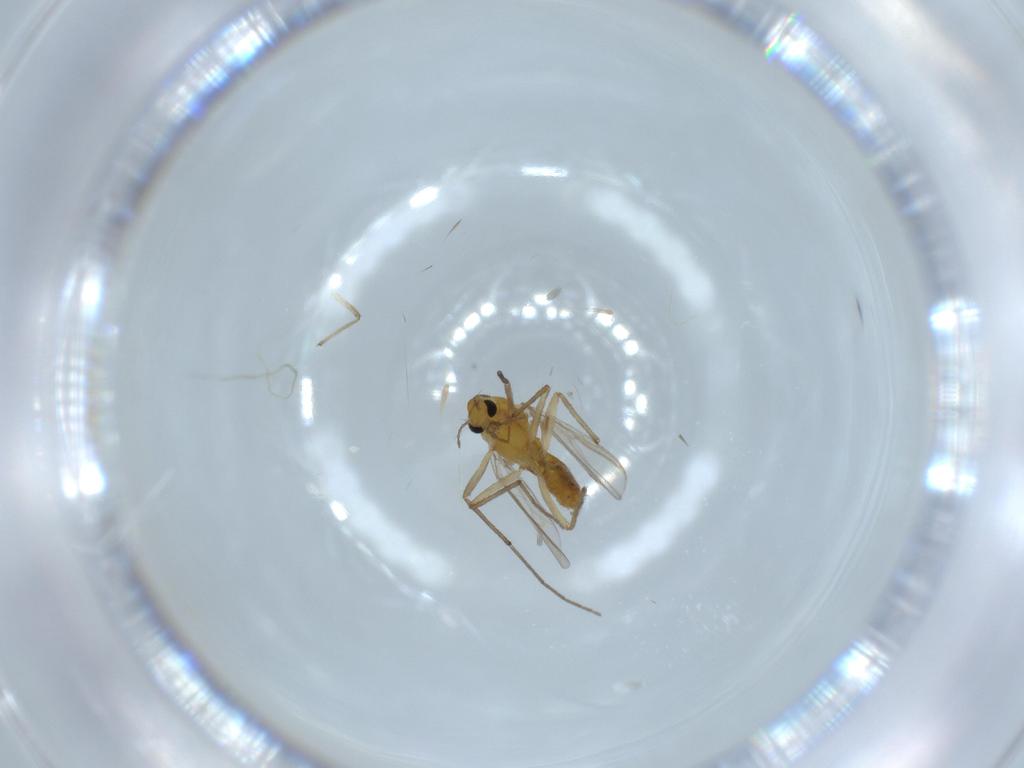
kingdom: Animalia
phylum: Arthropoda
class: Insecta
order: Diptera
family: Chironomidae
